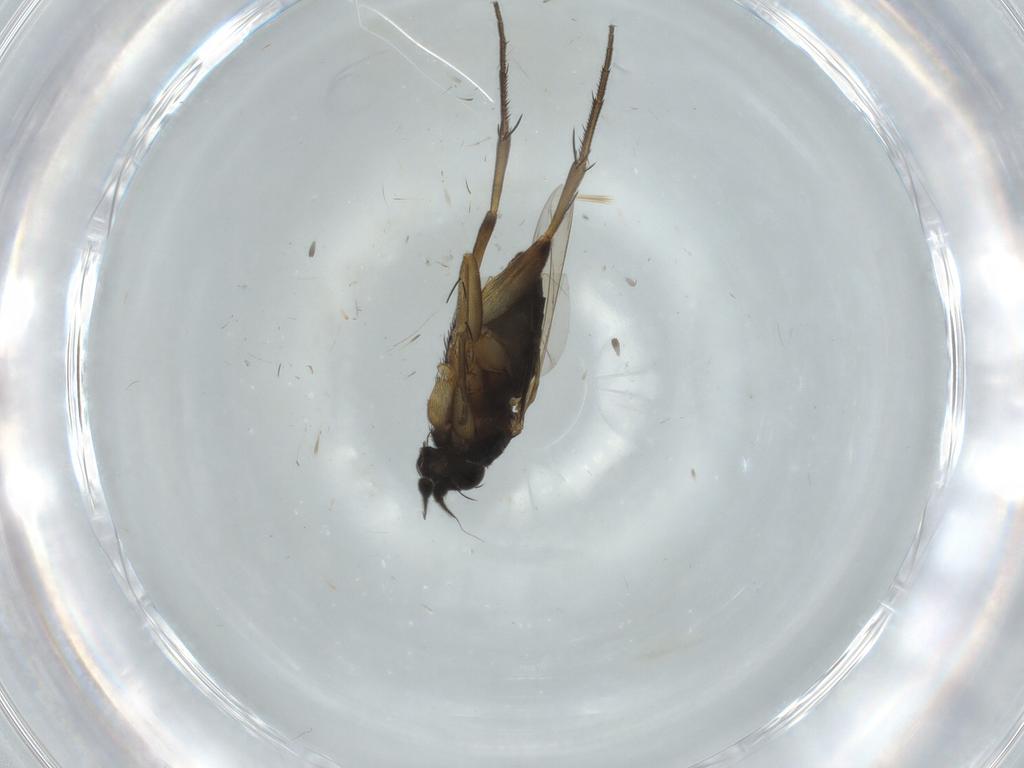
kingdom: Animalia
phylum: Arthropoda
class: Insecta
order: Diptera
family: Phoridae
